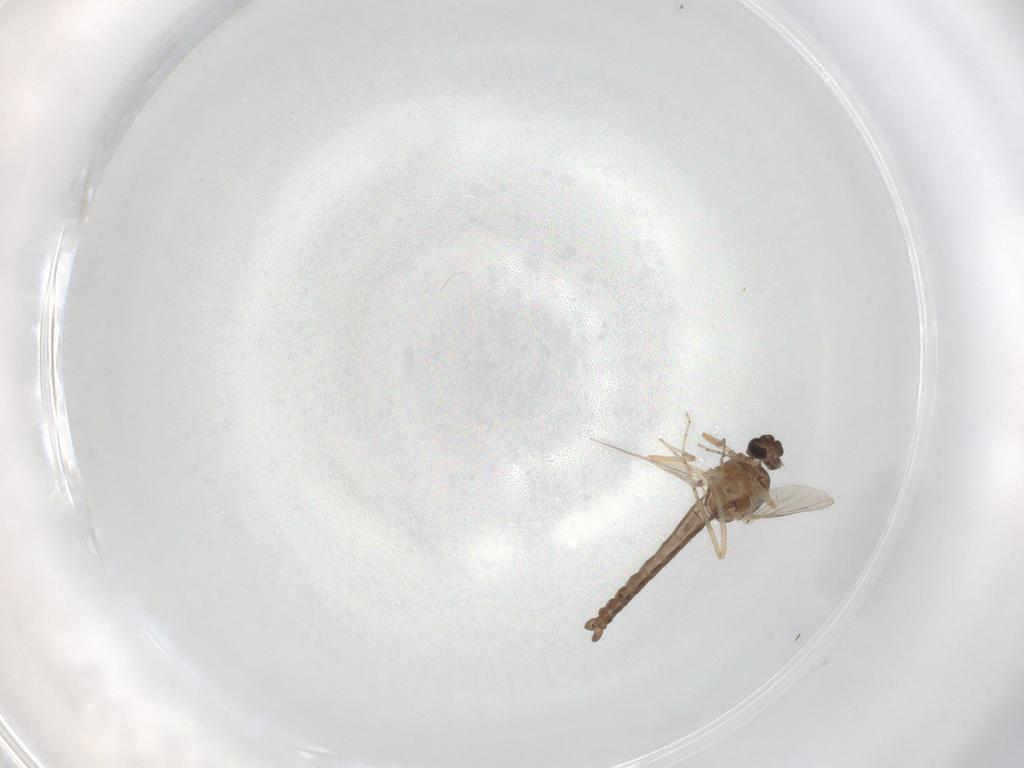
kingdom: Animalia
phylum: Arthropoda
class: Insecta
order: Diptera
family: Ceratopogonidae
